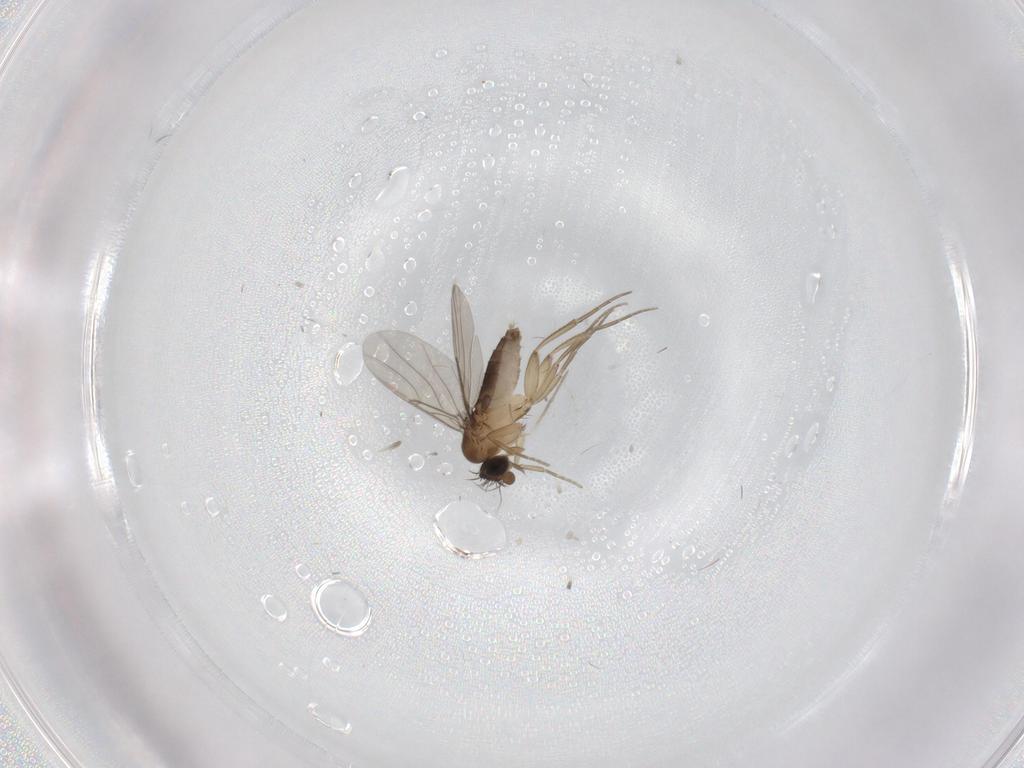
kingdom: Animalia
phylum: Arthropoda
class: Insecta
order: Diptera
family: Phoridae
